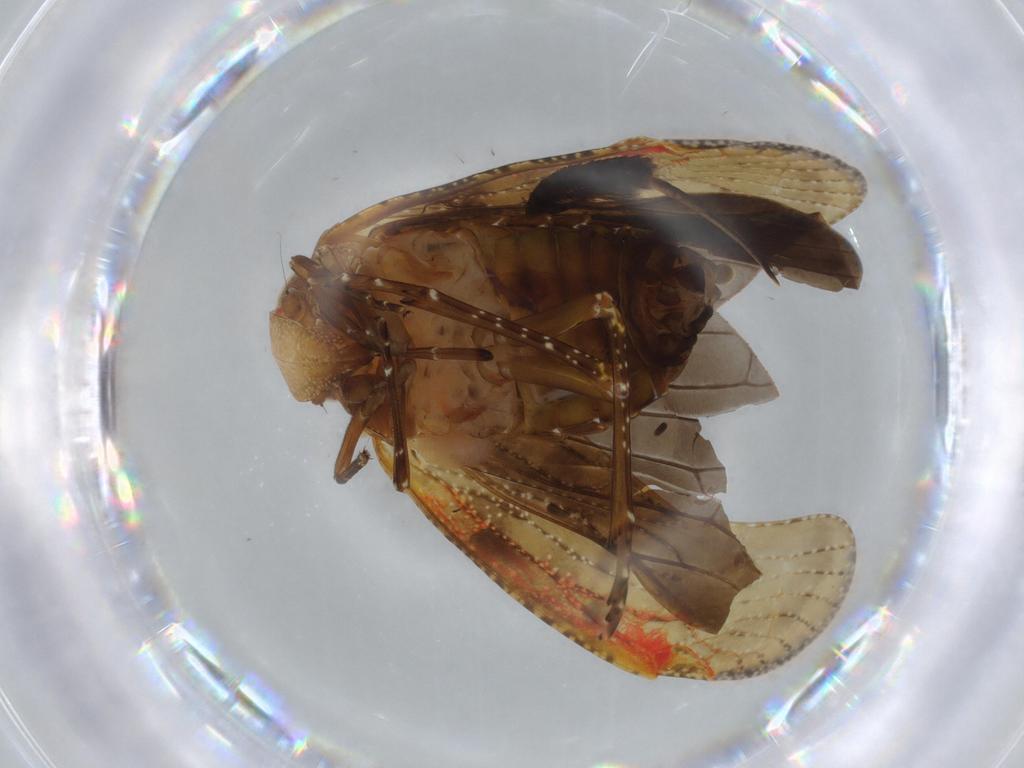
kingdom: Animalia
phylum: Arthropoda
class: Insecta
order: Hemiptera
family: Achilidae
